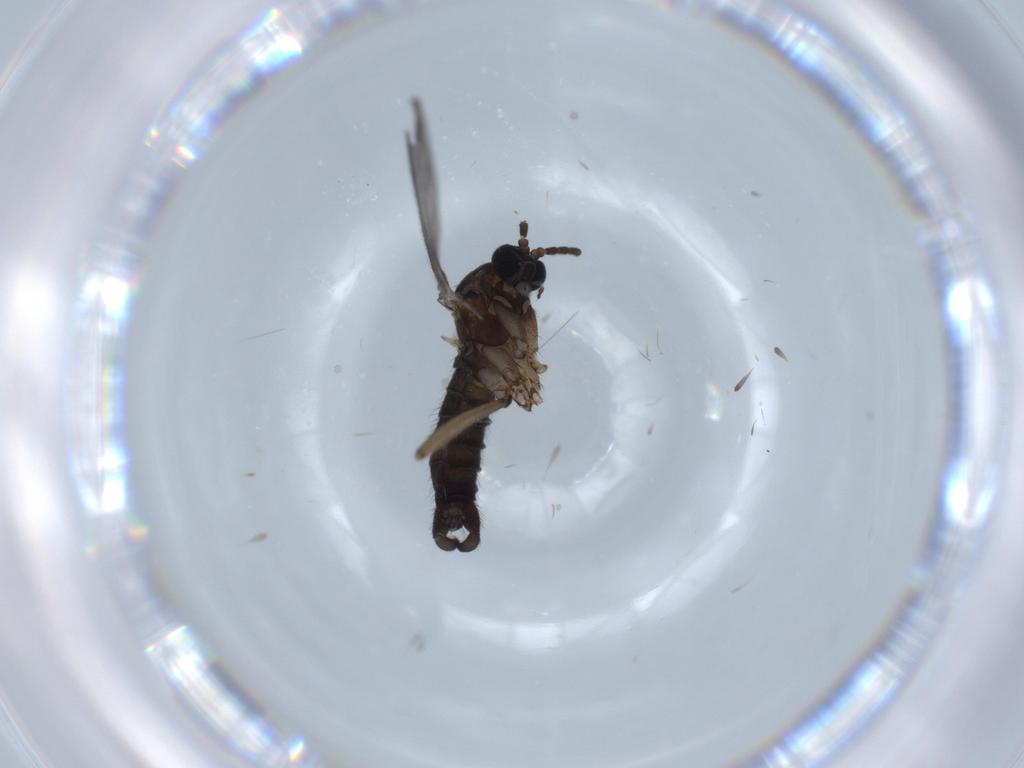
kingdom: Animalia
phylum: Arthropoda
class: Insecta
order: Diptera
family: Sciaridae
